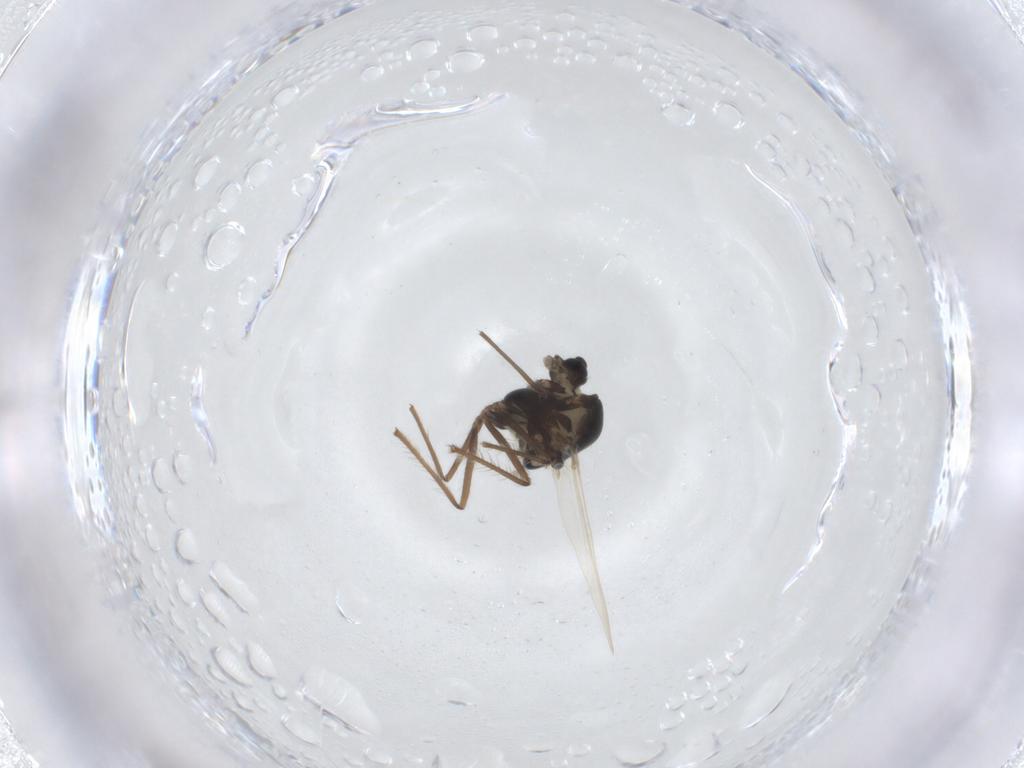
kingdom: Animalia
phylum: Arthropoda
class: Insecta
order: Diptera
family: Chironomidae
